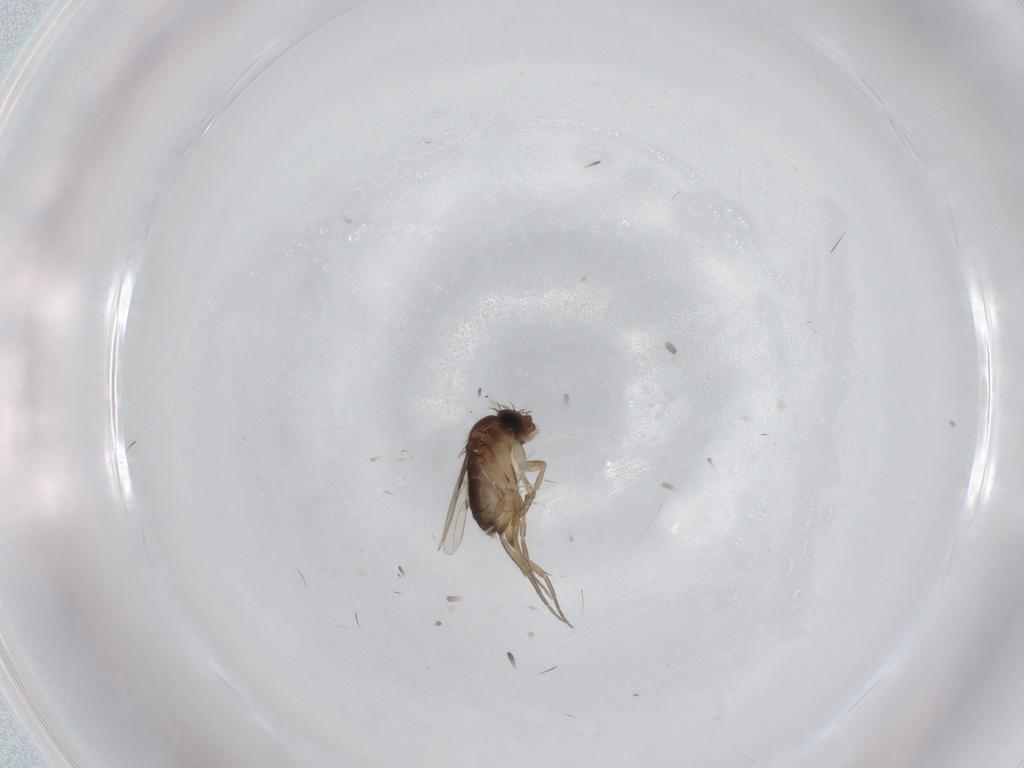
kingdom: Animalia
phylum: Arthropoda
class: Insecta
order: Diptera
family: Phoridae
